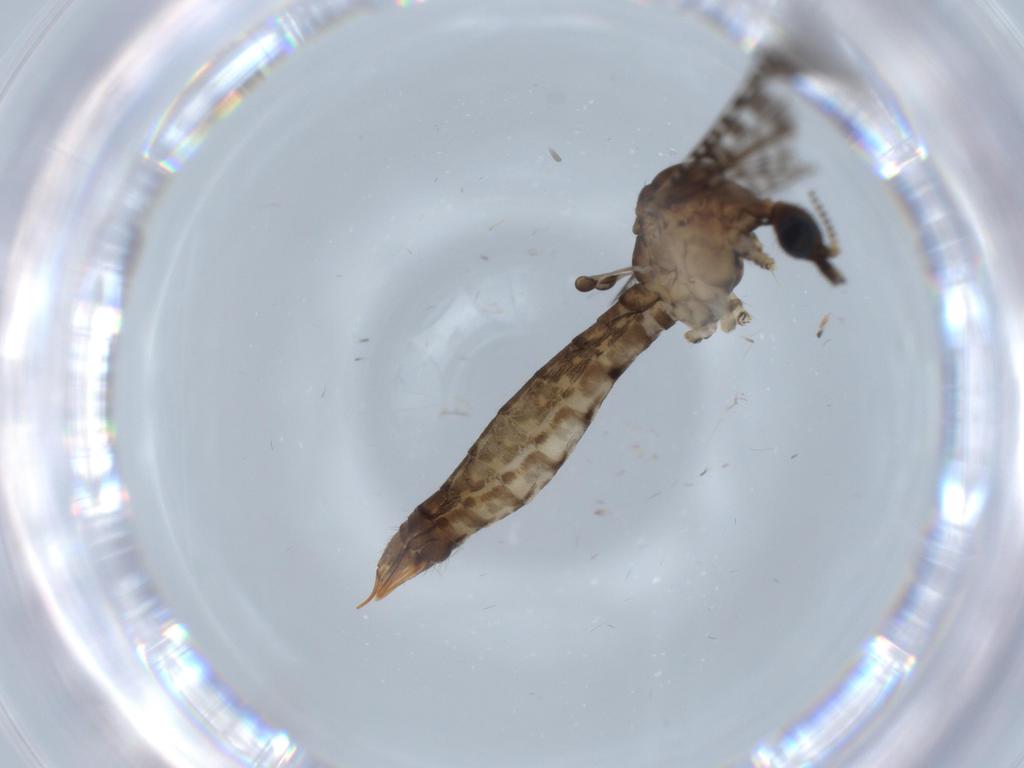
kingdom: Animalia
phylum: Arthropoda
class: Insecta
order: Diptera
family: Cecidomyiidae
